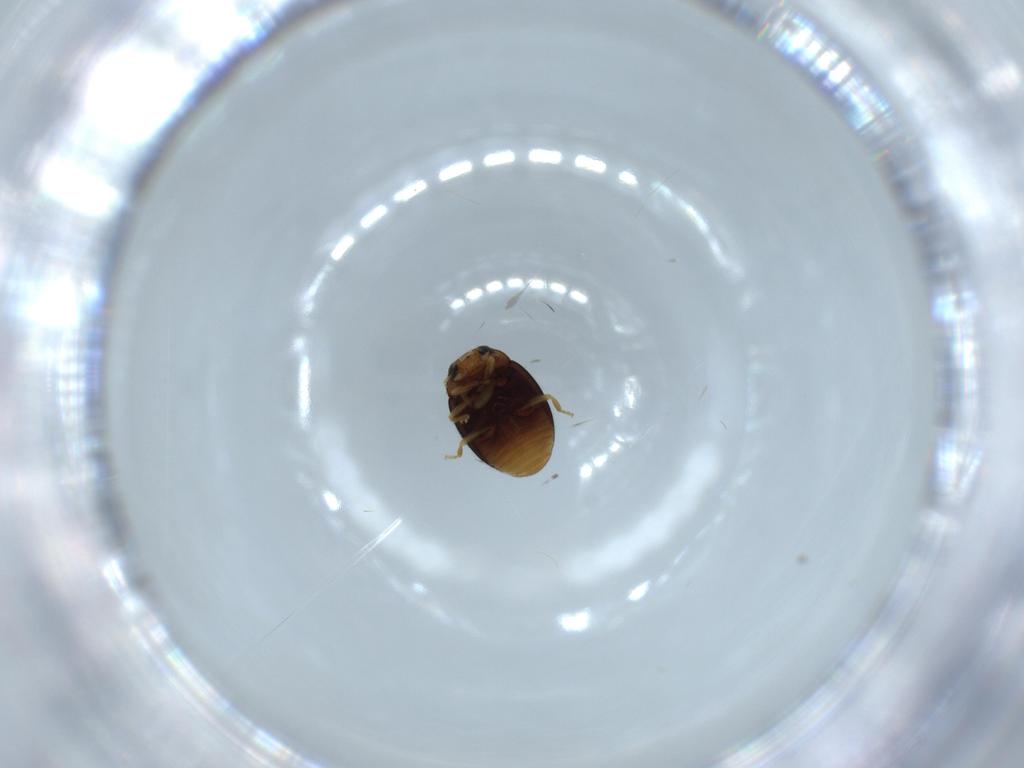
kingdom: Animalia
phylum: Arthropoda
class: Insecta
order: Coleoptera
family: Coccinellidae
